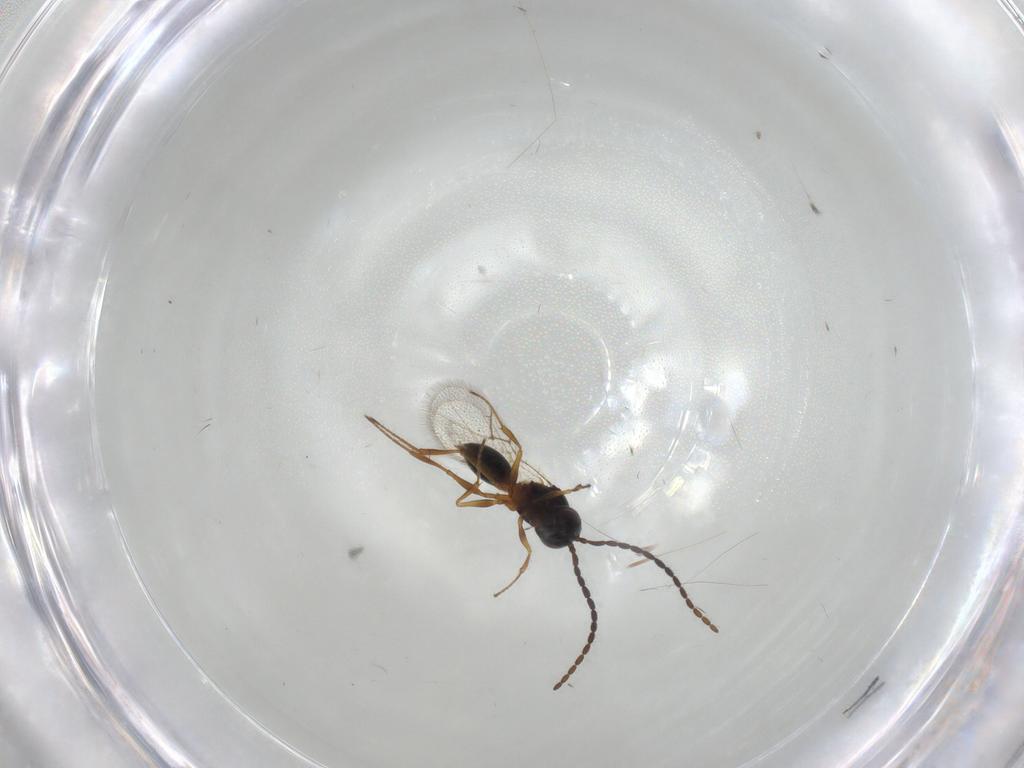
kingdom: Animalia
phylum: Arthropoda
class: Insecta
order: Hymenoptera
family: Figitidae
